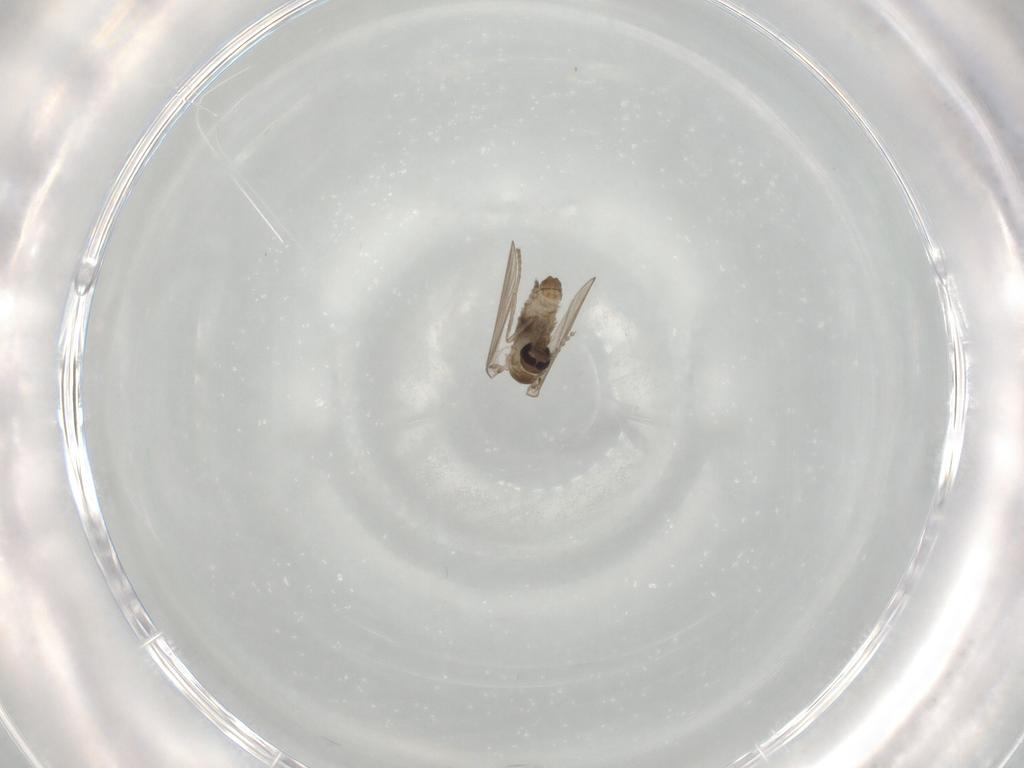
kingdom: Animalia
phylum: Arthropoda
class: Insecta
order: Diptera
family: Psychodidae
